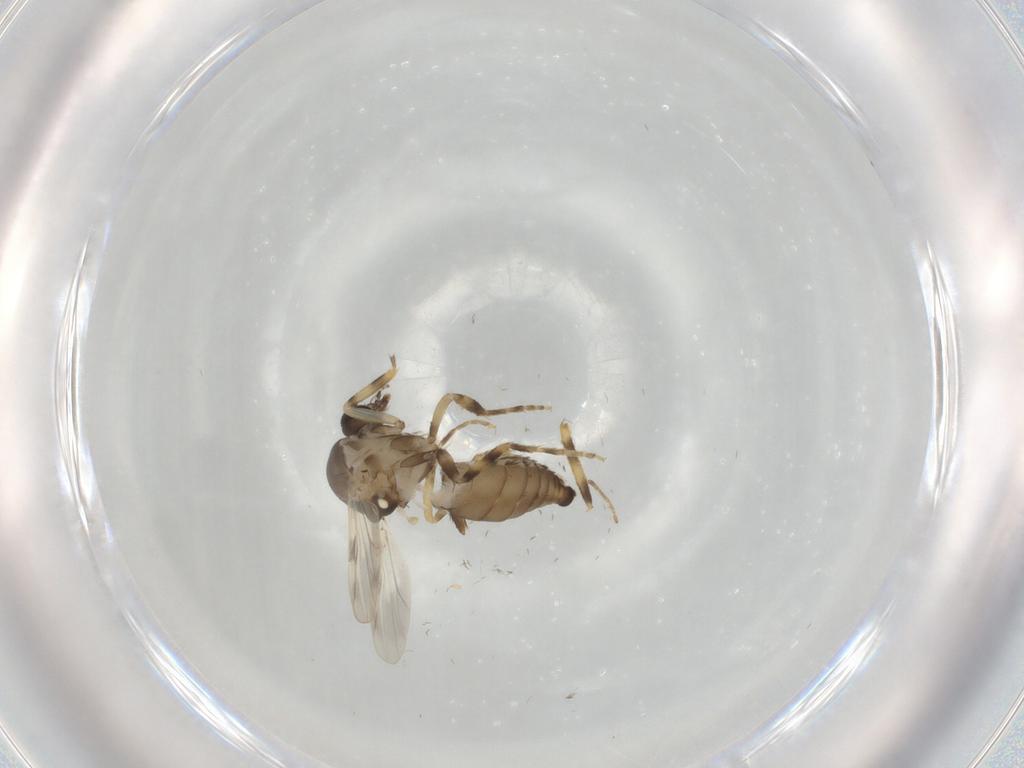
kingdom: Animalia
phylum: Arthropoda
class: Insecta
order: Diptera
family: Ceratopogonidae
